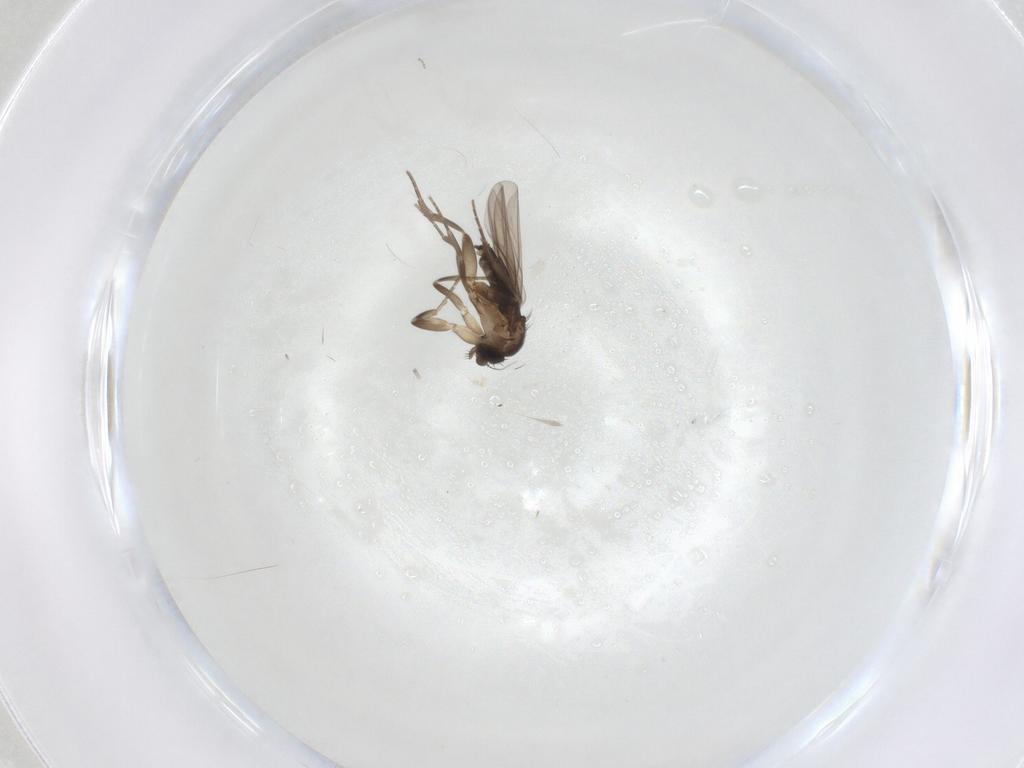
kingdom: Animalia
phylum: Arthropoda
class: Insecta
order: Diptera
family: Phoridae
